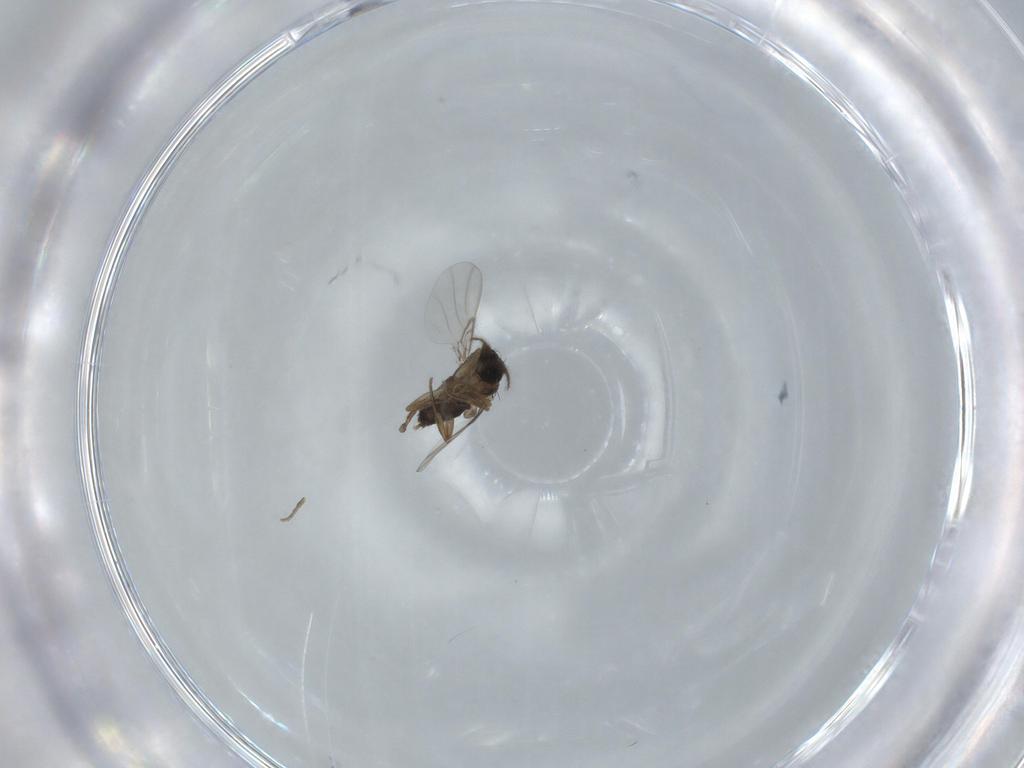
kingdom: Animalia
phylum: Arthropoda
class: Insecta
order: Diptera
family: Phoridae
